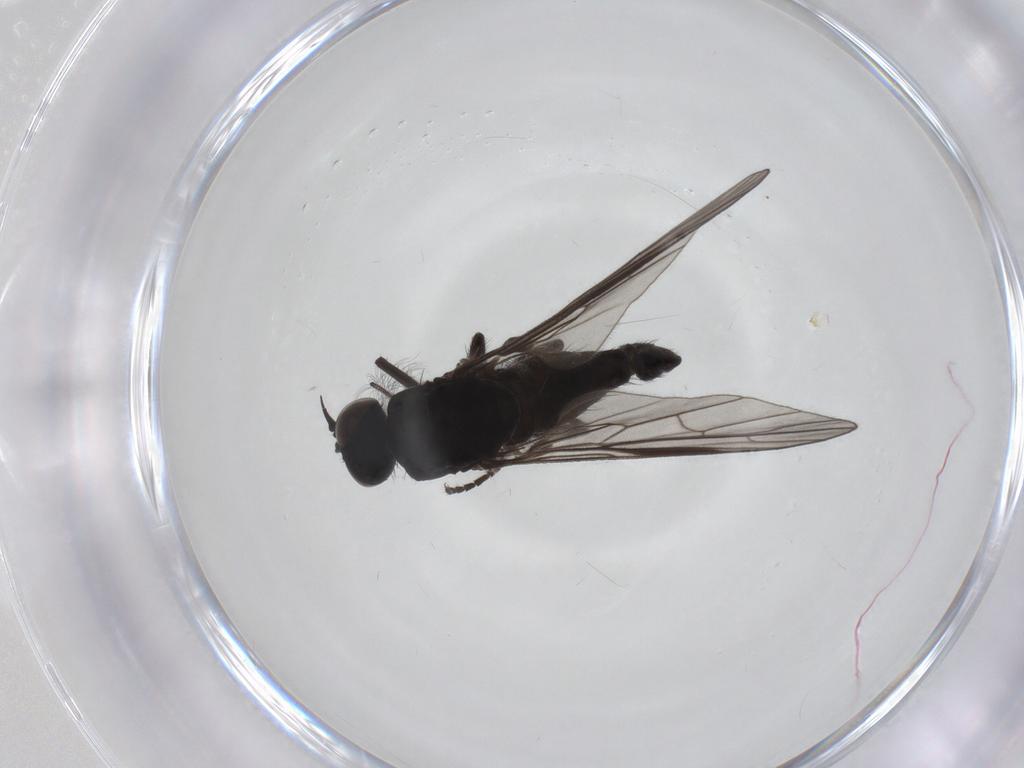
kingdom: Animalia
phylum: Arthropoda
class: Insecta
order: Diptera
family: Empididae
